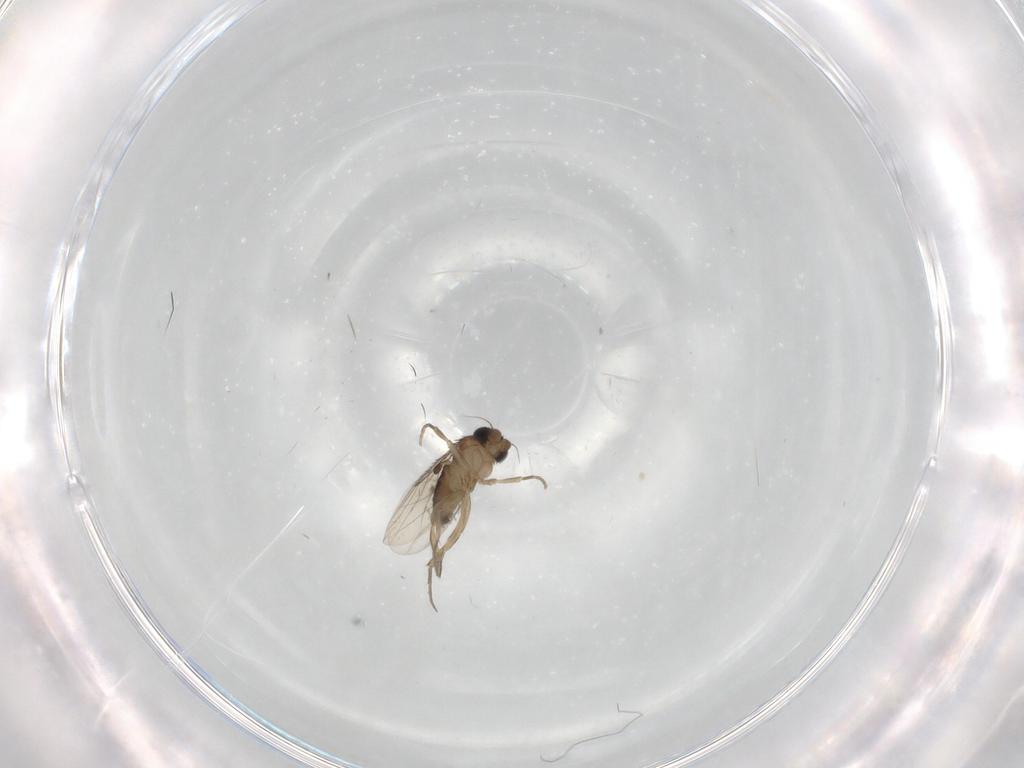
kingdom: Animalia
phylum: Arthropoda
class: Insecta
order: Diptera
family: Phoridae
